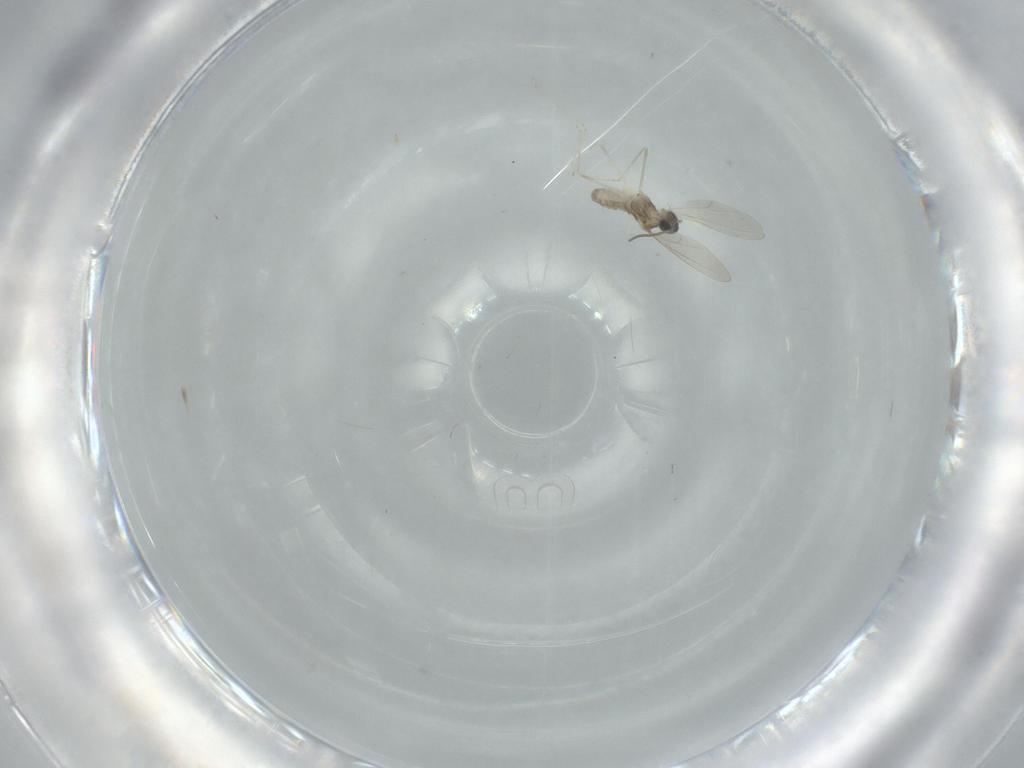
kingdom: Animalia
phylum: Arthropoda
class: Insecta
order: Diptera
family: Cecidomyiidae
